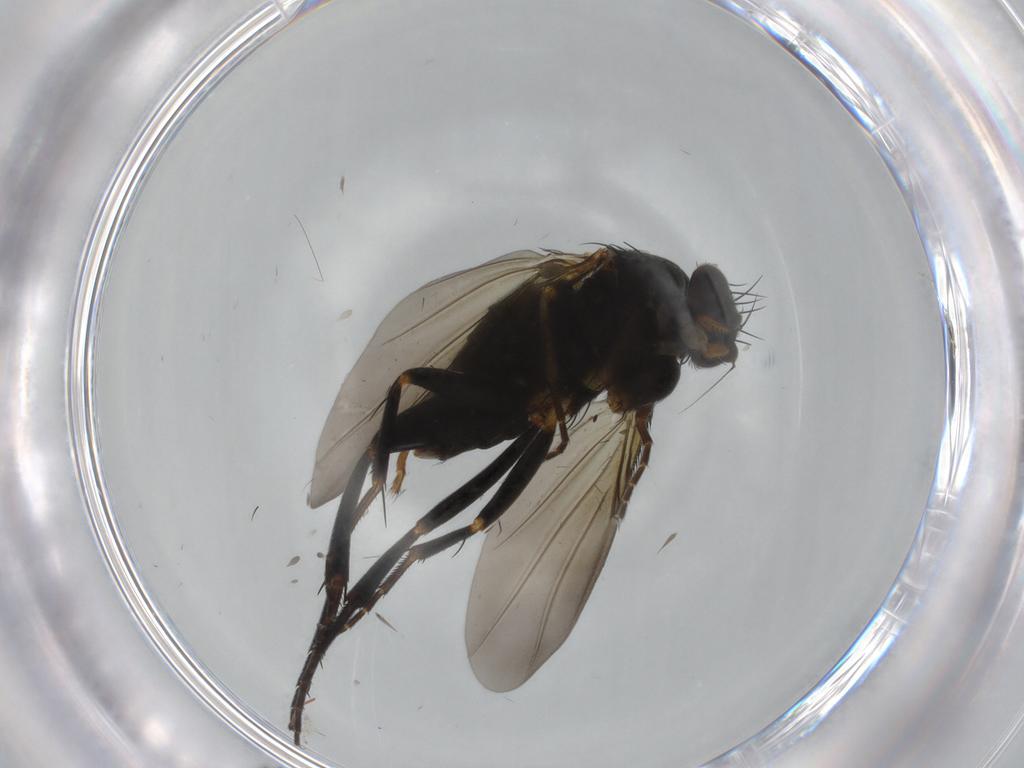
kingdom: Animalia
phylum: Arthropoda
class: Insecta
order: Diptera
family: Phoridae
